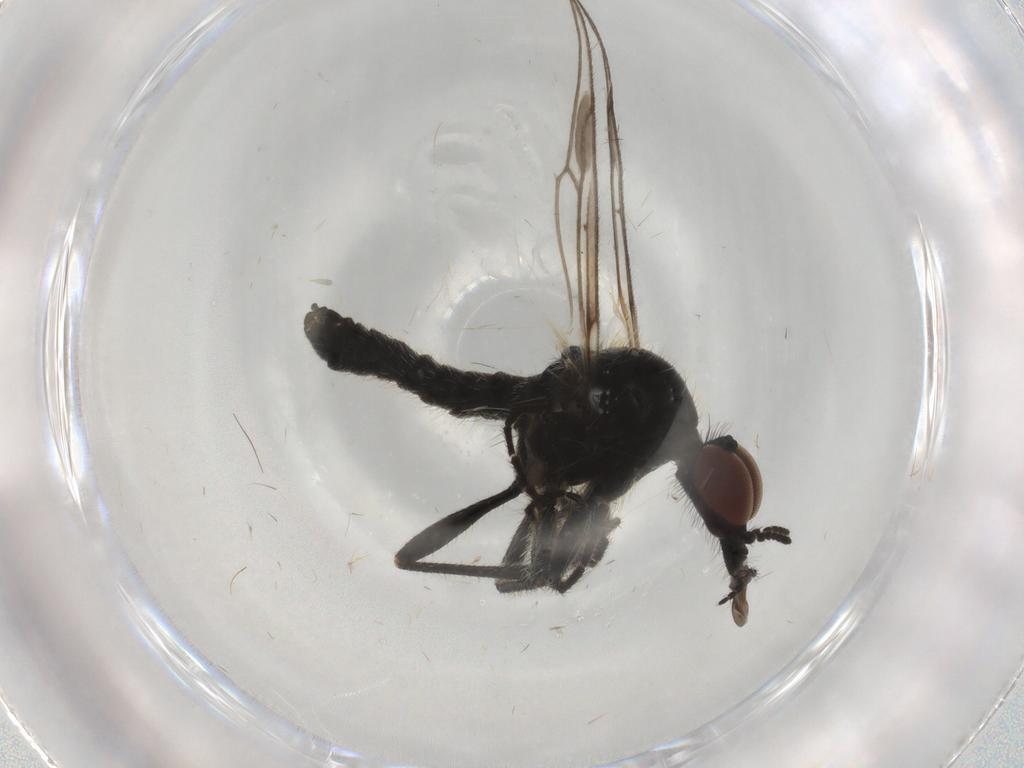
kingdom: Animalia
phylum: Arthropoda
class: Insecta
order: Diptera
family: Bibionidae
